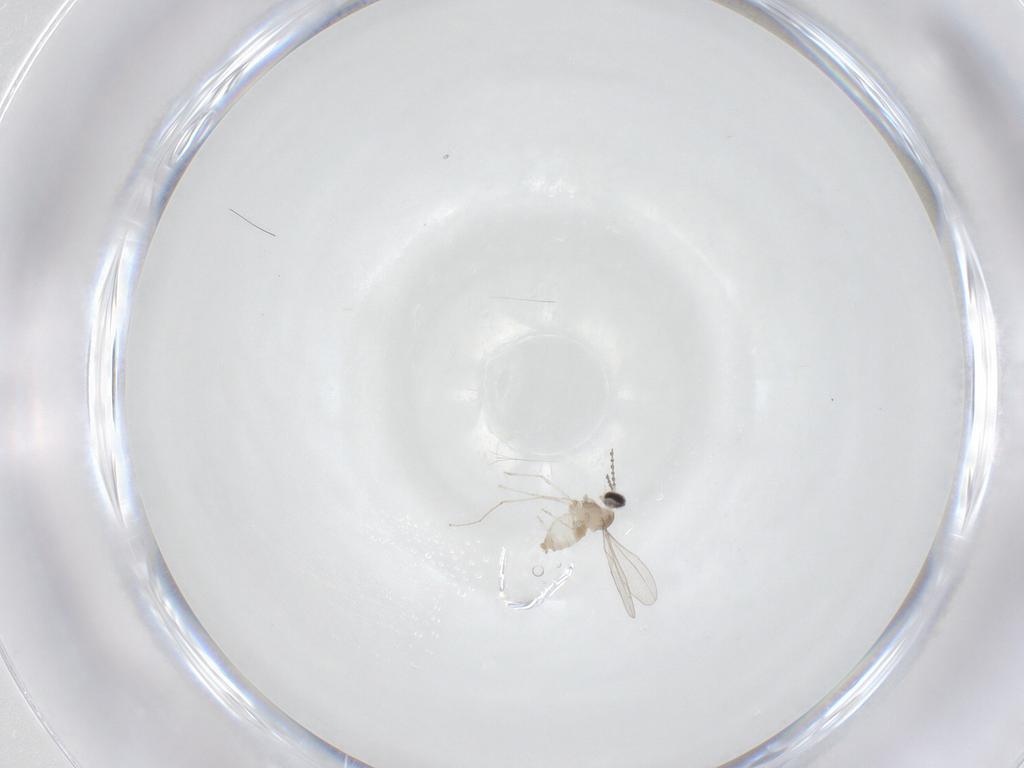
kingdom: Animalia
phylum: Arthropoda
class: Insecta
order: Diptera
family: Cecidomyiidae
